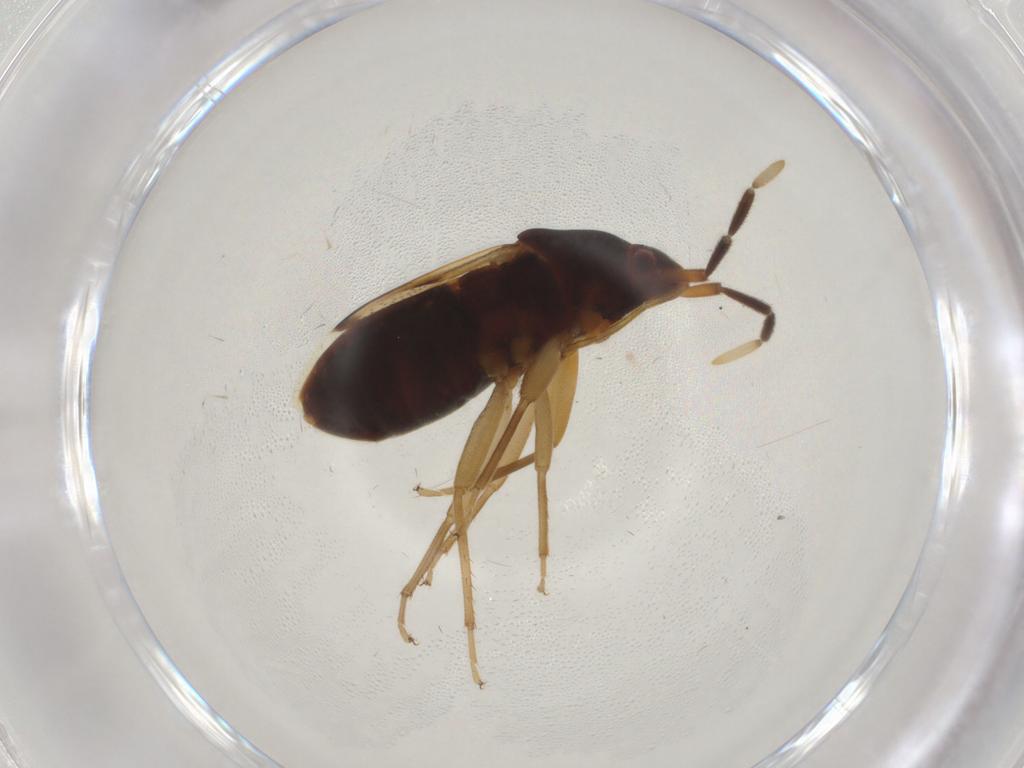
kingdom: Animalia
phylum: Arthropoda
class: Insecta
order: Hemiptera
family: Rhyparochromidae
